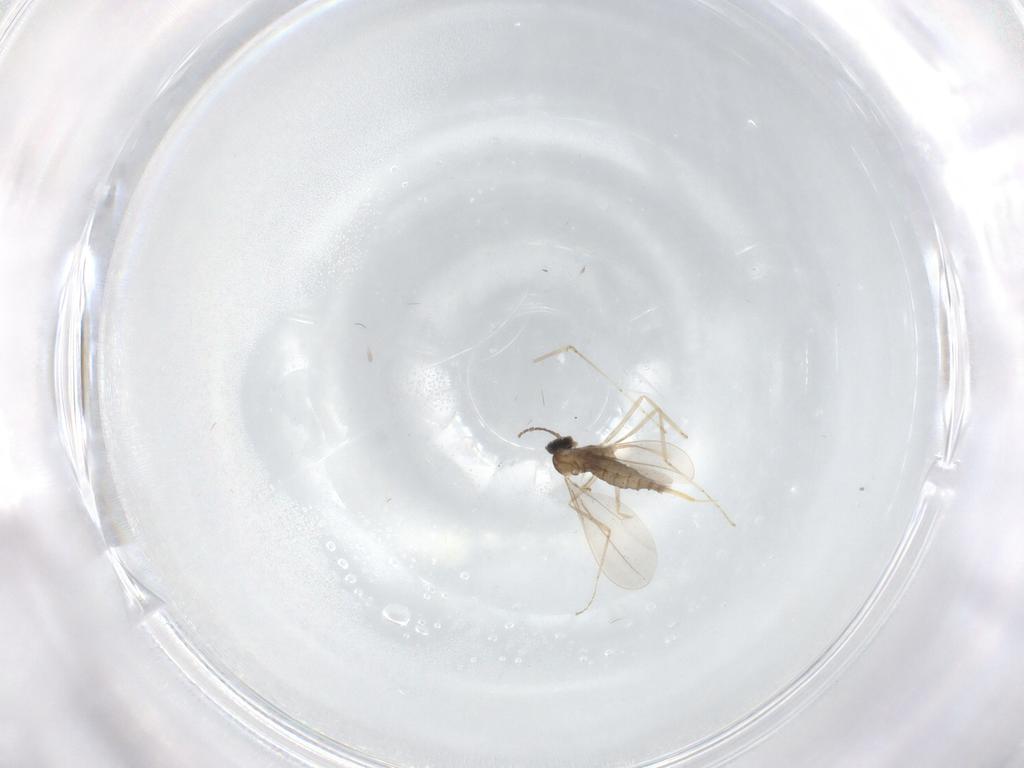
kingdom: Animalia
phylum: Arthropoda
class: Insecta
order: Diptera
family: Cecidomyiidae
